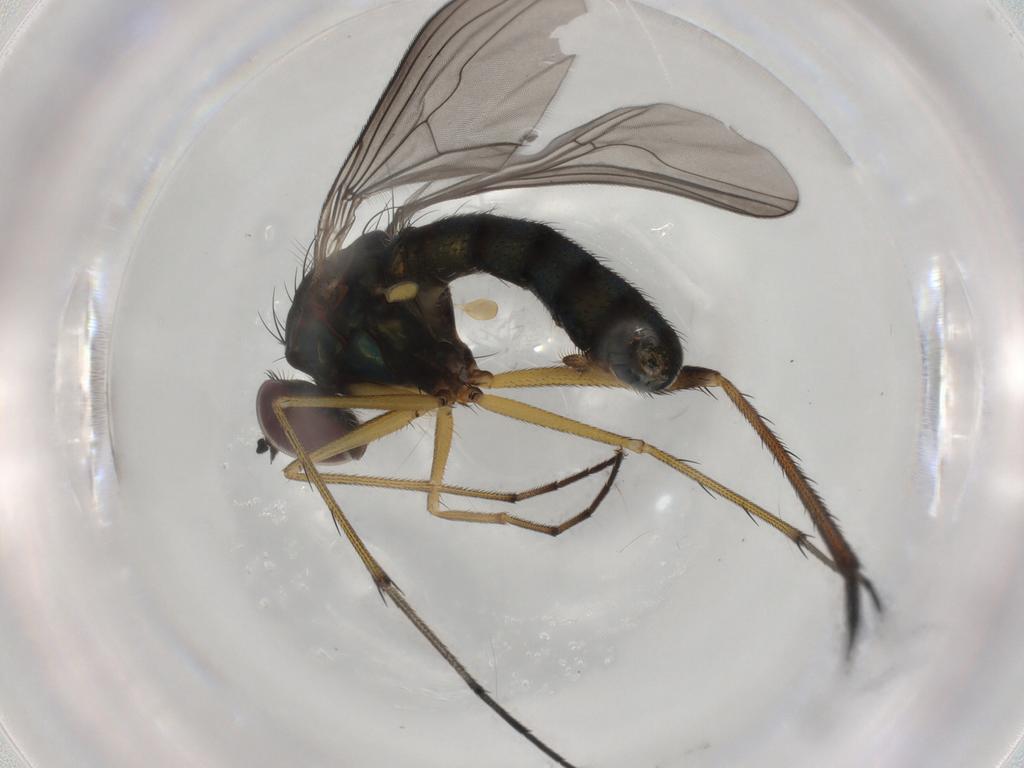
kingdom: Animalia
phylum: Arthropoda
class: Insecta
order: Diptera
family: Dolichopodidae
